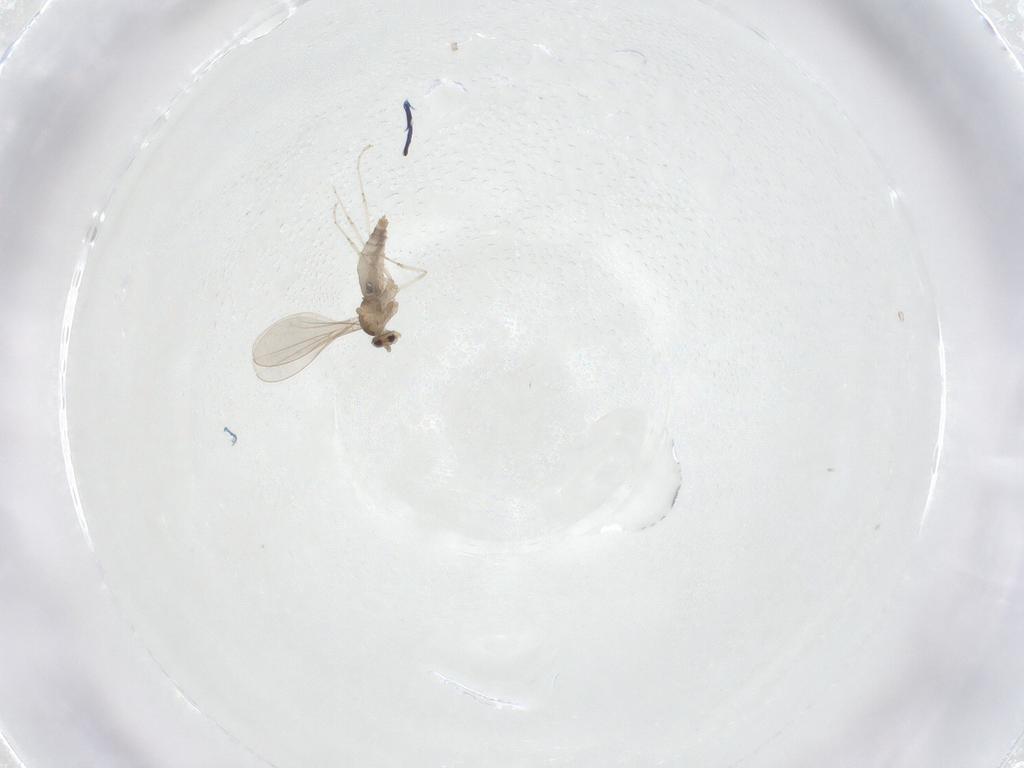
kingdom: Animalia
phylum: Arthropoda
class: Insecta
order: Diptera
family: Cecidomyiidae
